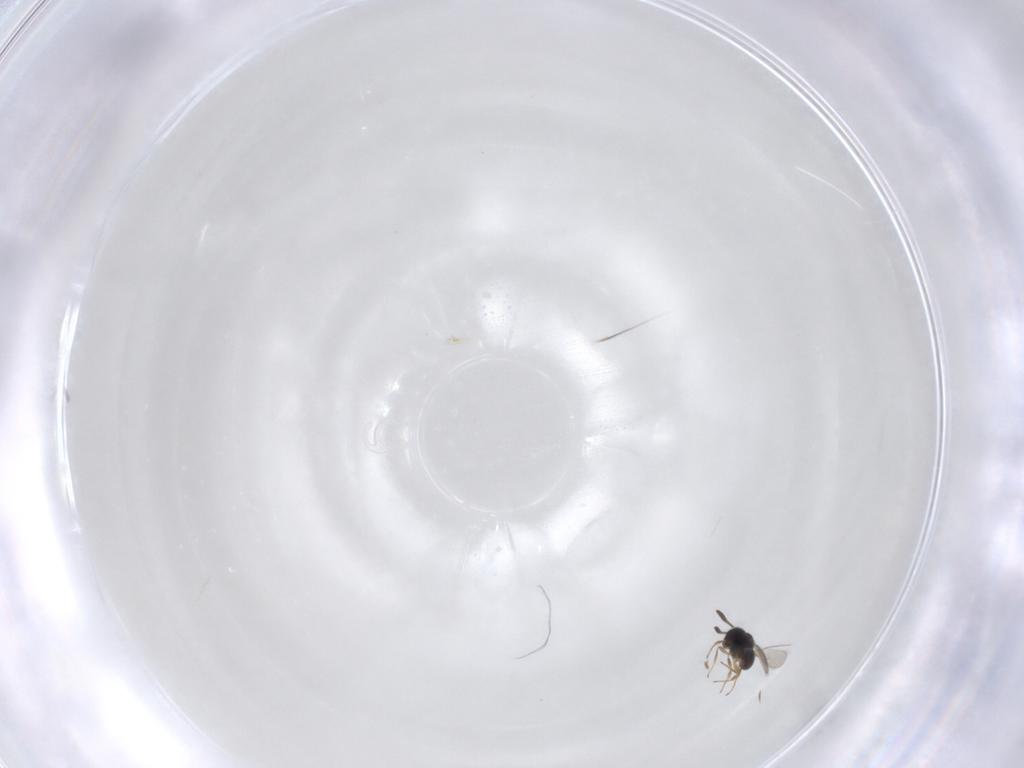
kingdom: Animalia
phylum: Arthropoda
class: Insecta
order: Hymenoptera
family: Scelionidae
